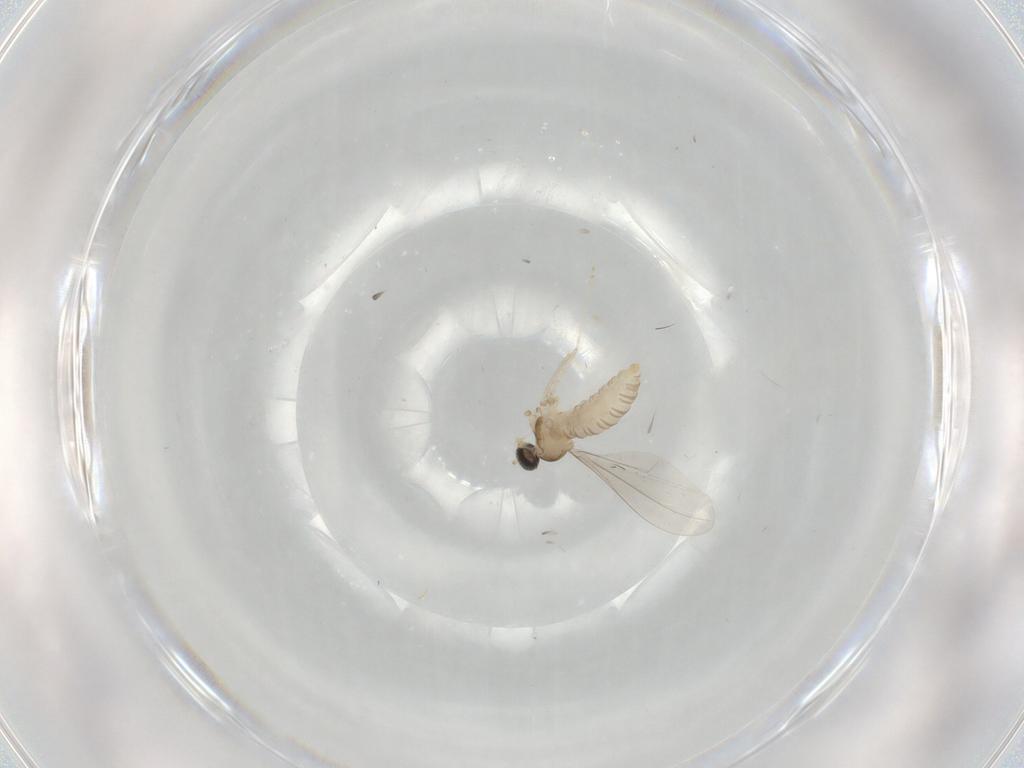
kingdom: Animalia
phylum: Arthropoda
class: Insecta
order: Diptera
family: Cecidomyiidae
